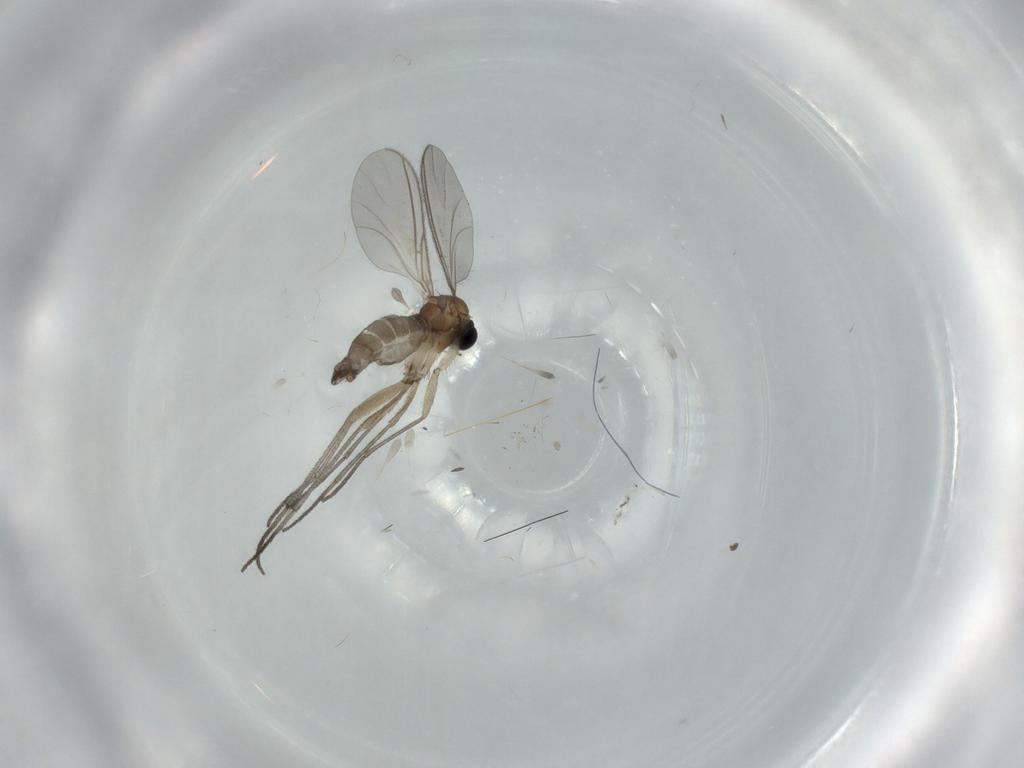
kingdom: Animalia
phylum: Arthropoda
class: Insecta
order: Diptera
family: Sciaridae
